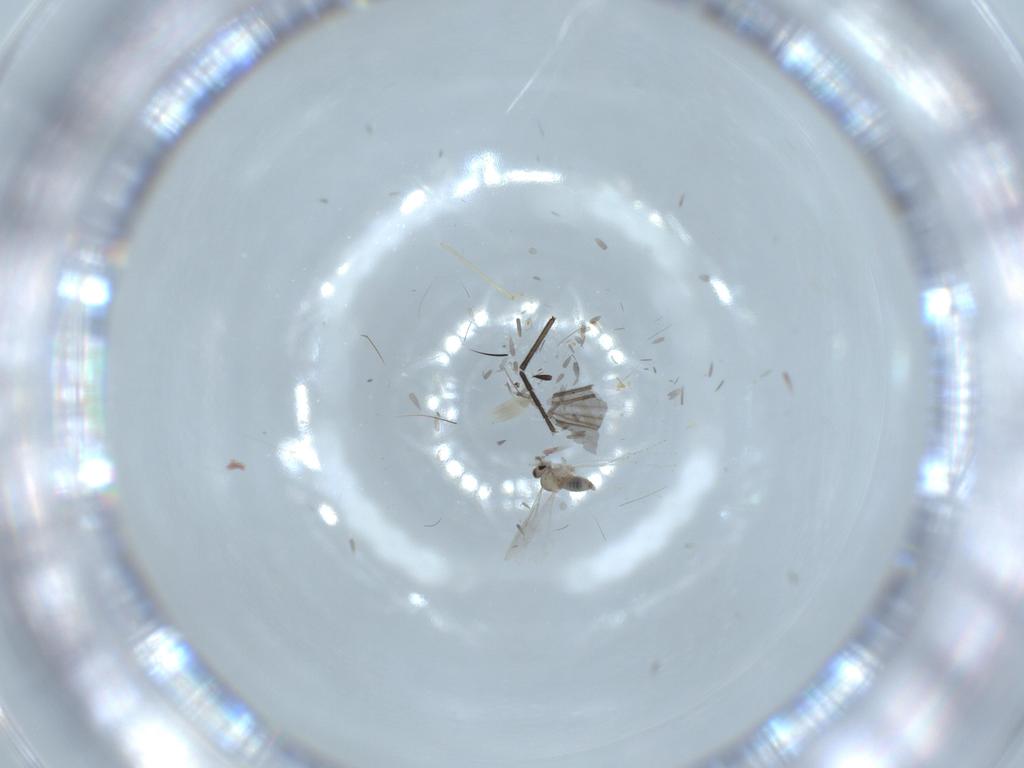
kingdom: Animalia
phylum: Arthropoda
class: Insecta
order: Diptera
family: Cecidomyiidae
